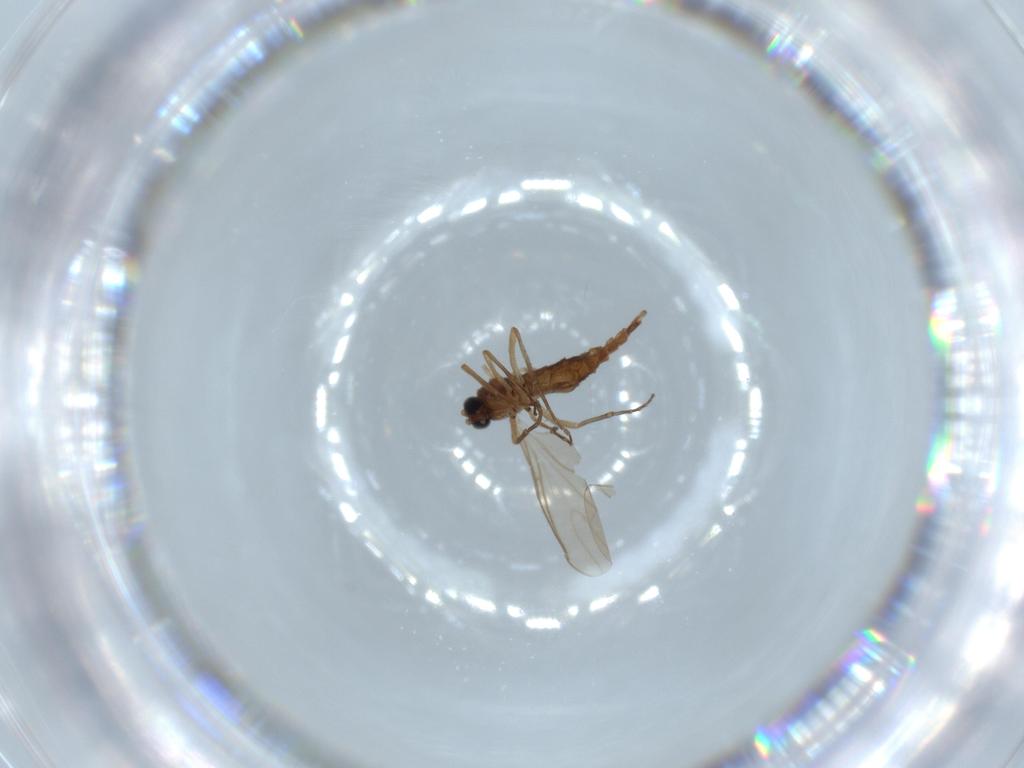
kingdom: Animalia
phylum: Arthropoda
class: Insecta
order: Diptera
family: Sciaridae
